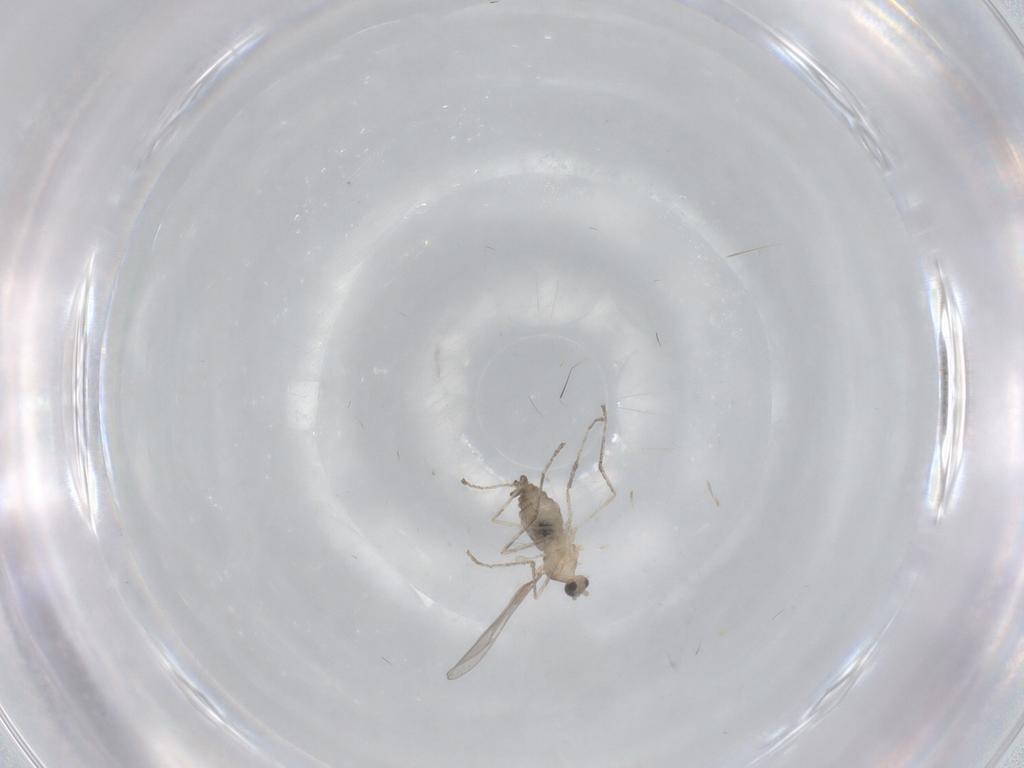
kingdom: Animalia
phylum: Arthropoda
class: Insecta
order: Diptera
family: Cecidomyiidae
